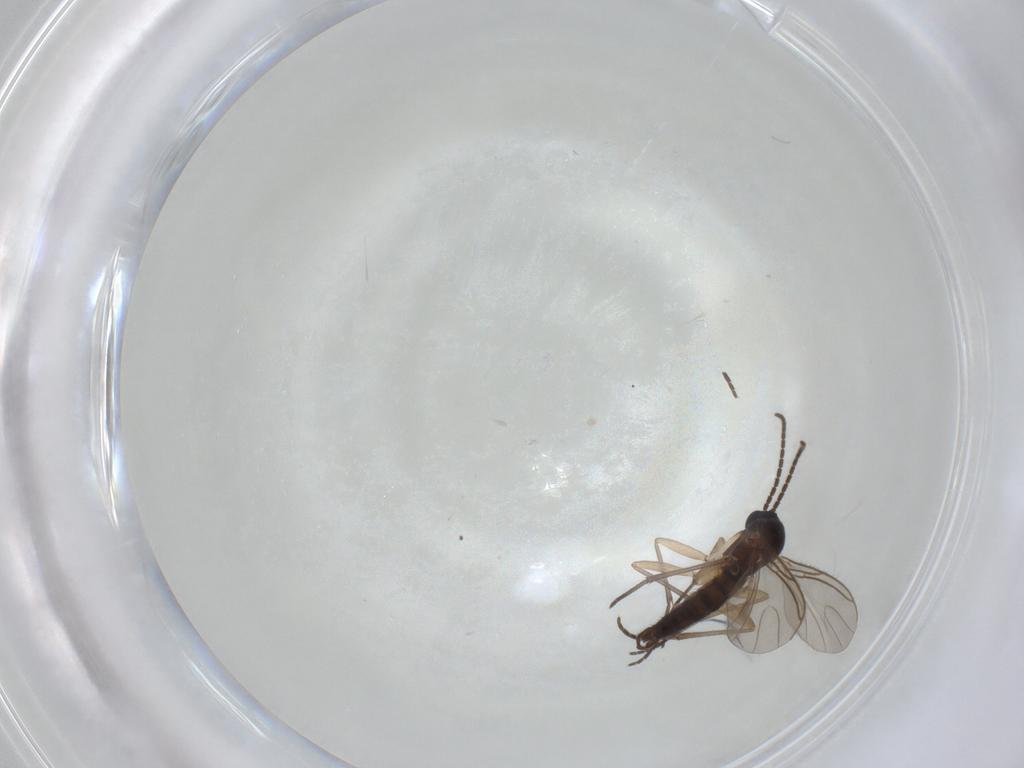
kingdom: Animalia
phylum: Arthropoda
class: Insecta
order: Diptera
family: Sciaridae
